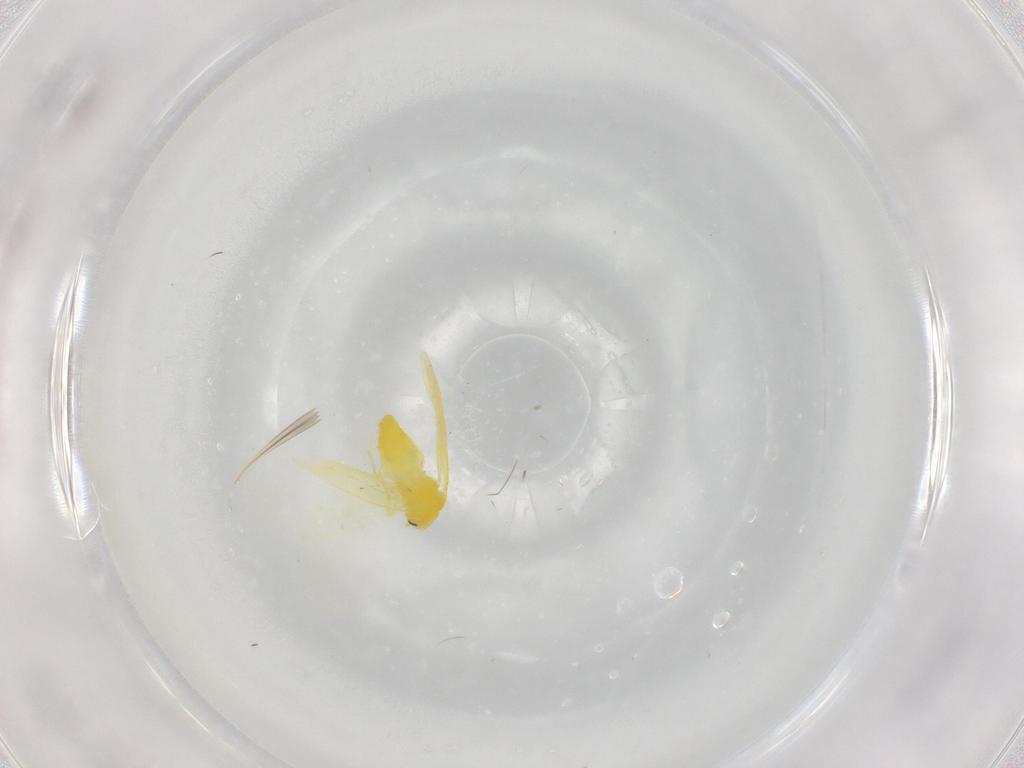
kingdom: Animalia
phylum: Arthropoda
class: Insecta
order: Hemiptera
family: Cicadellidae
